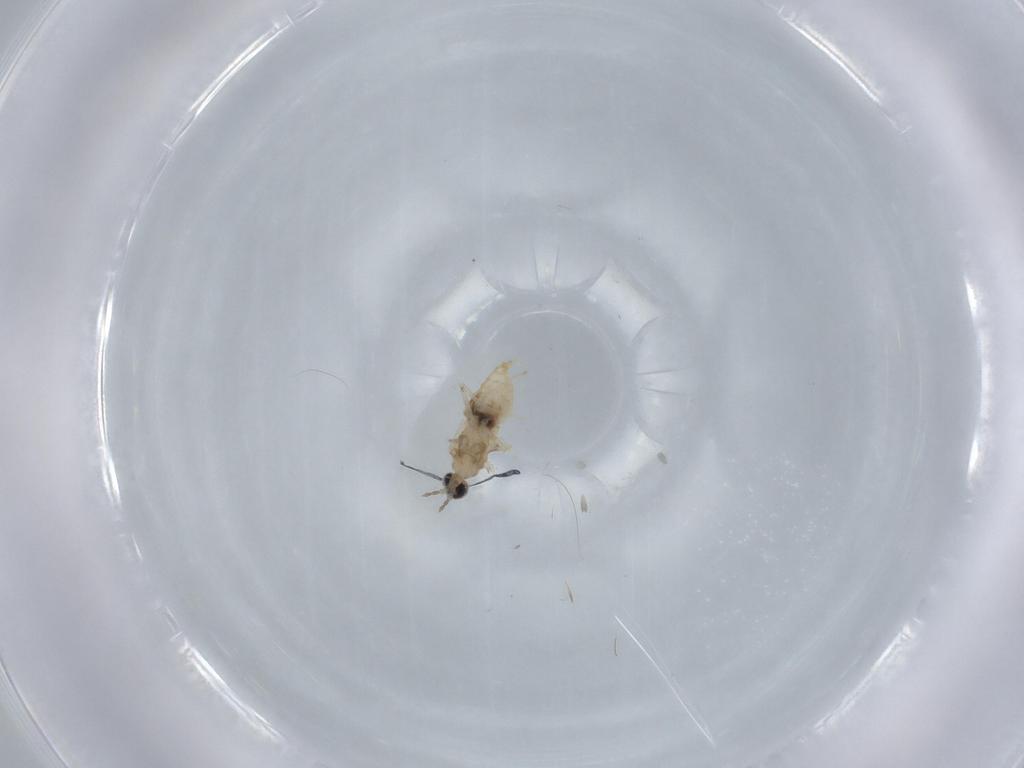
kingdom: Animalia
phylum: Arthropoda
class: Insecta
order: Diptera
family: Cecidomyiidae
